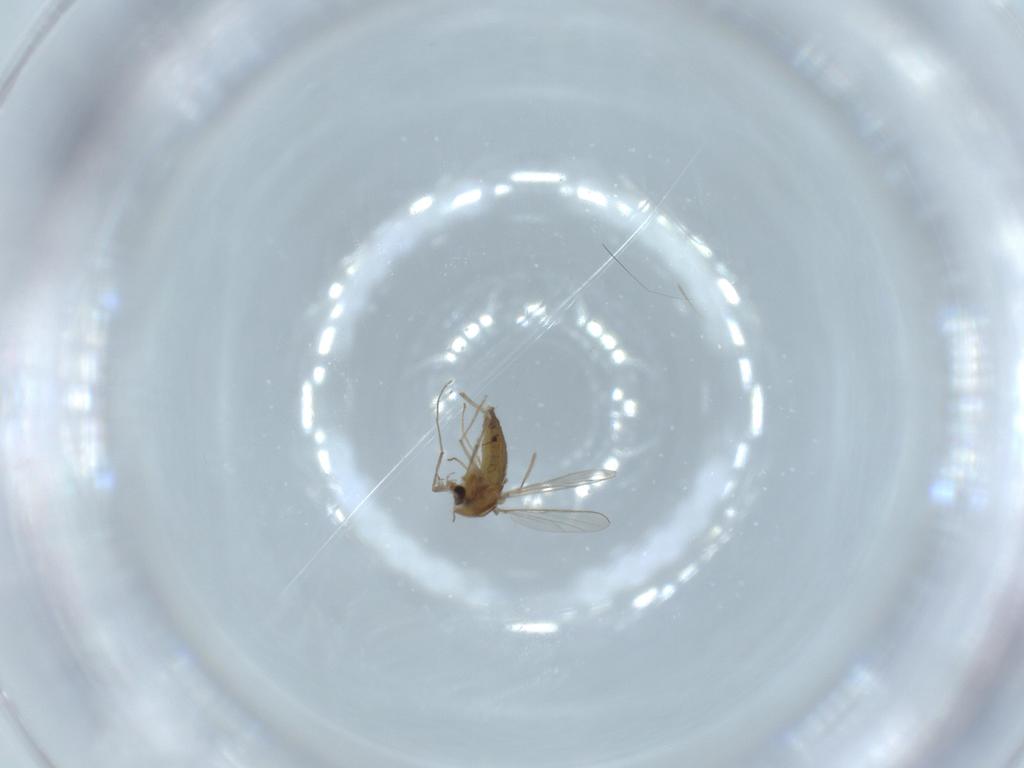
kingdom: Animalia
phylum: Arthropoda
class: Insecta
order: Diptera
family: Chironomidae
